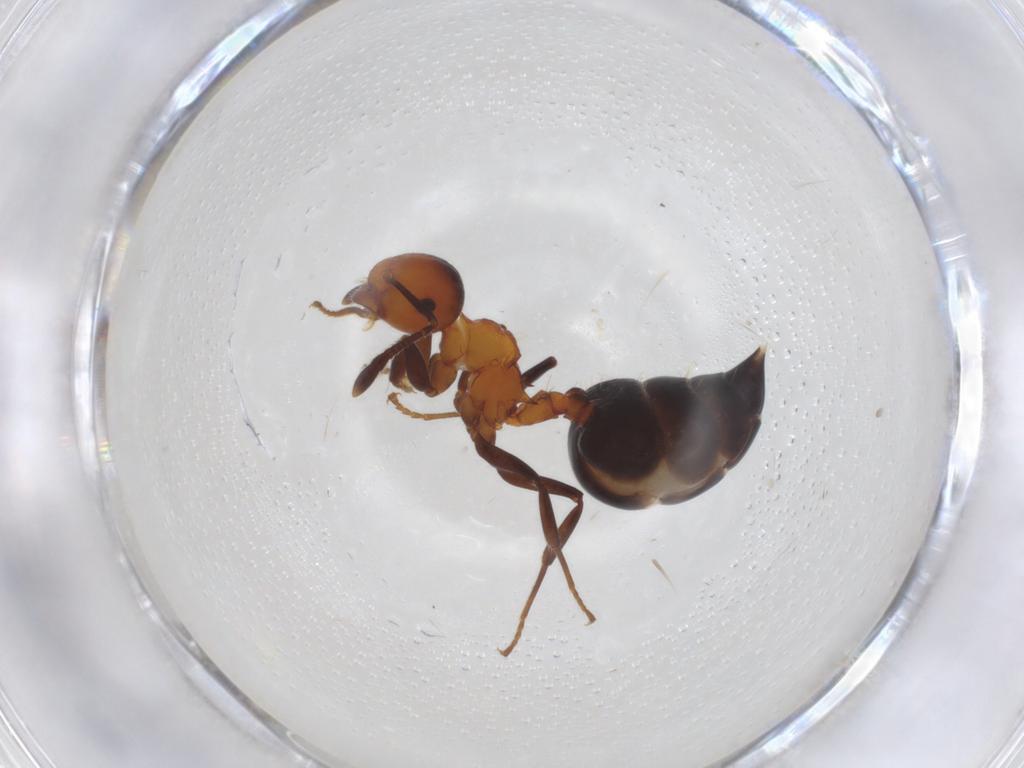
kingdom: Animalia
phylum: Arthropoda
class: Insecta
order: Hymenoptera
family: Formicidae
